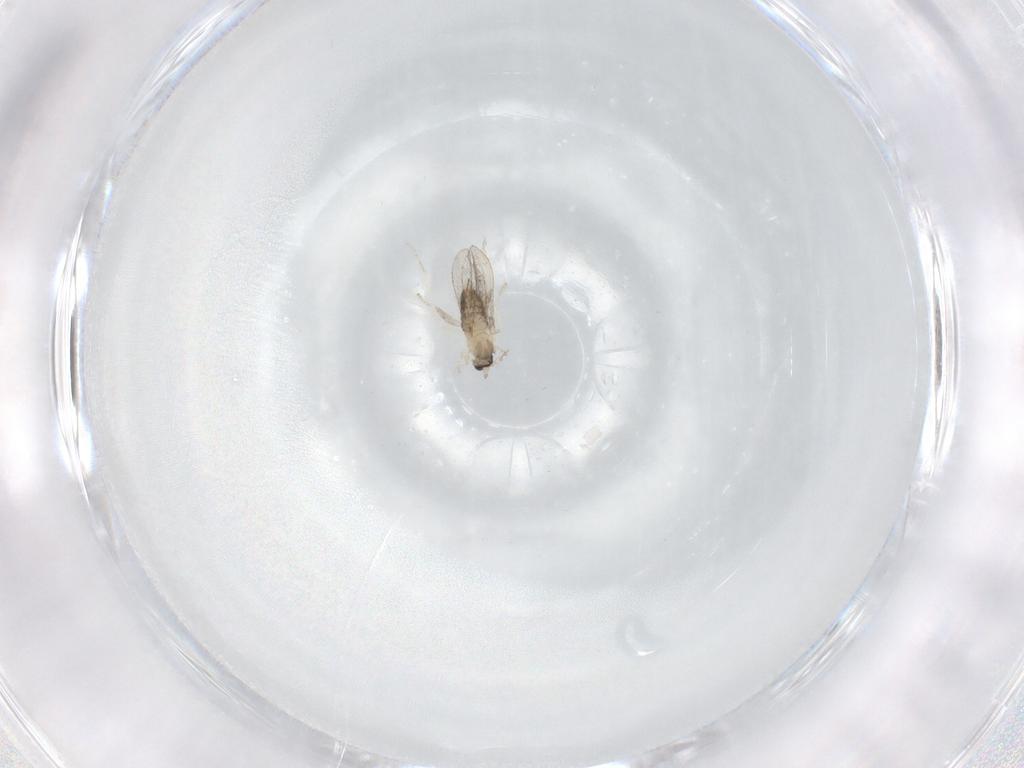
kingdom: Animalia
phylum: Arthropoda
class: Insecta
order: Diptera
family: Cecidomyiidae
